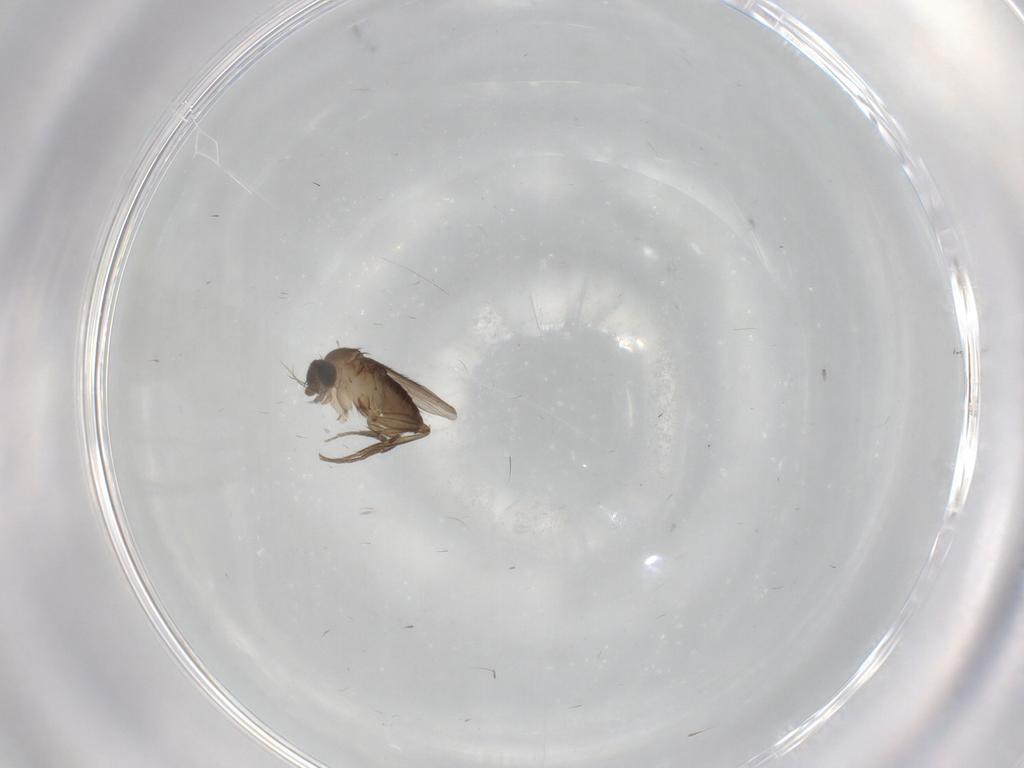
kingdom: Animalia
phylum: Arthropoda
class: Insecta
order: Diptera
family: Phoridae
